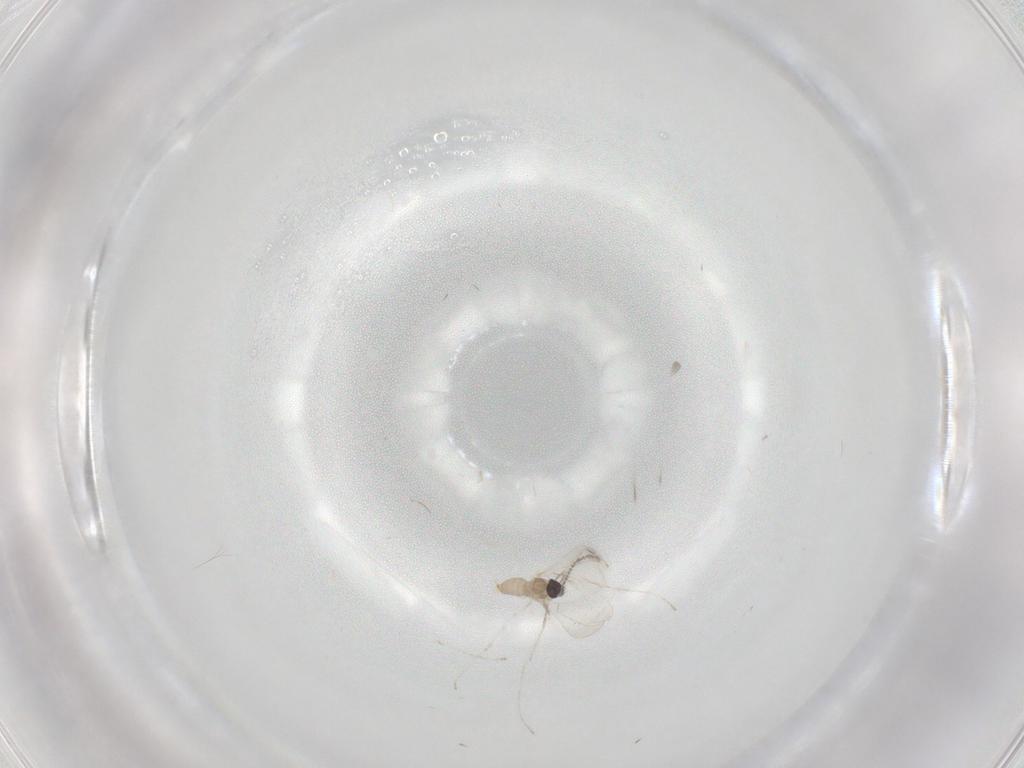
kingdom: Animalia
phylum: Arthropoda
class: Insecta
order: Diptera
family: Cecidomyiidae
